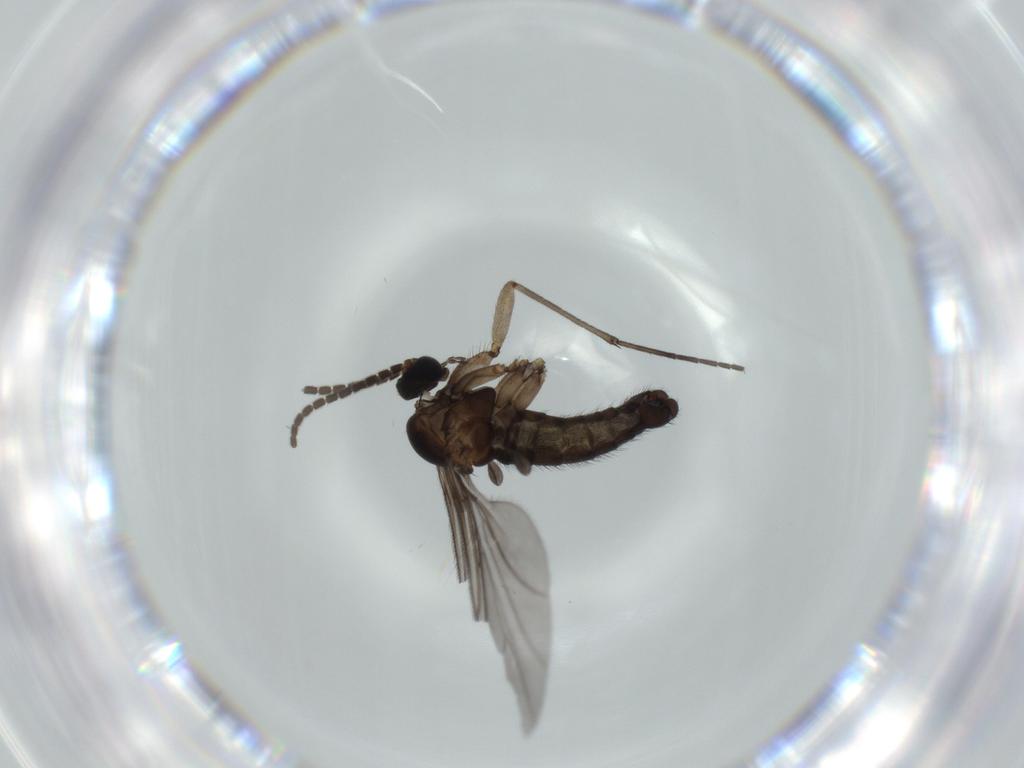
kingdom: Animalia
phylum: Arthropoda
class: Insecta
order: Diptera
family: Sciaridae
